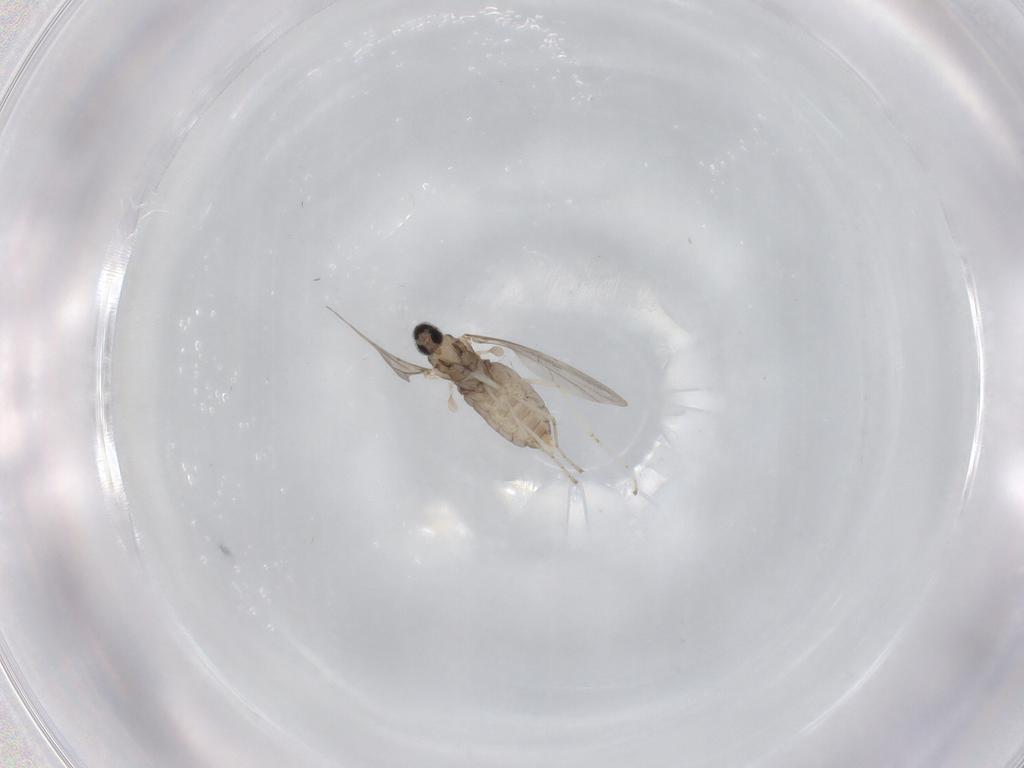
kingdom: Animalia
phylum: Arthropoda
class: Insecta
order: Diptera
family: Cecidomyiidae
